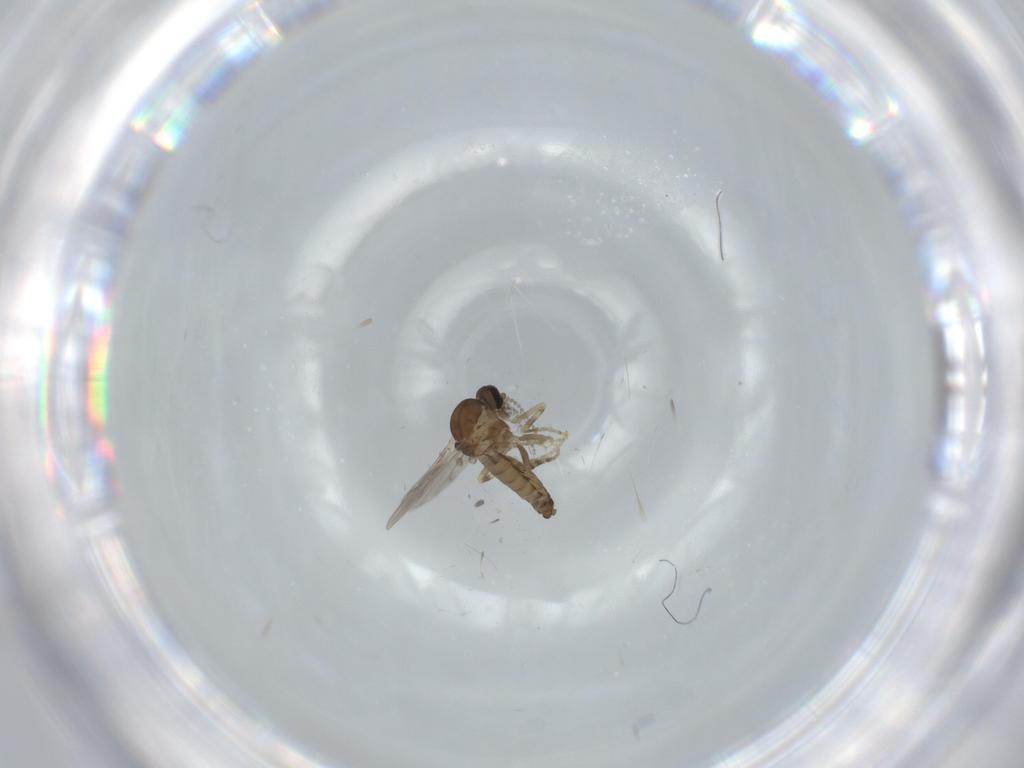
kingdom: Animalia
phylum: Arthropoda
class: Insecta
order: Diptera
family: Ceratopogonidae
